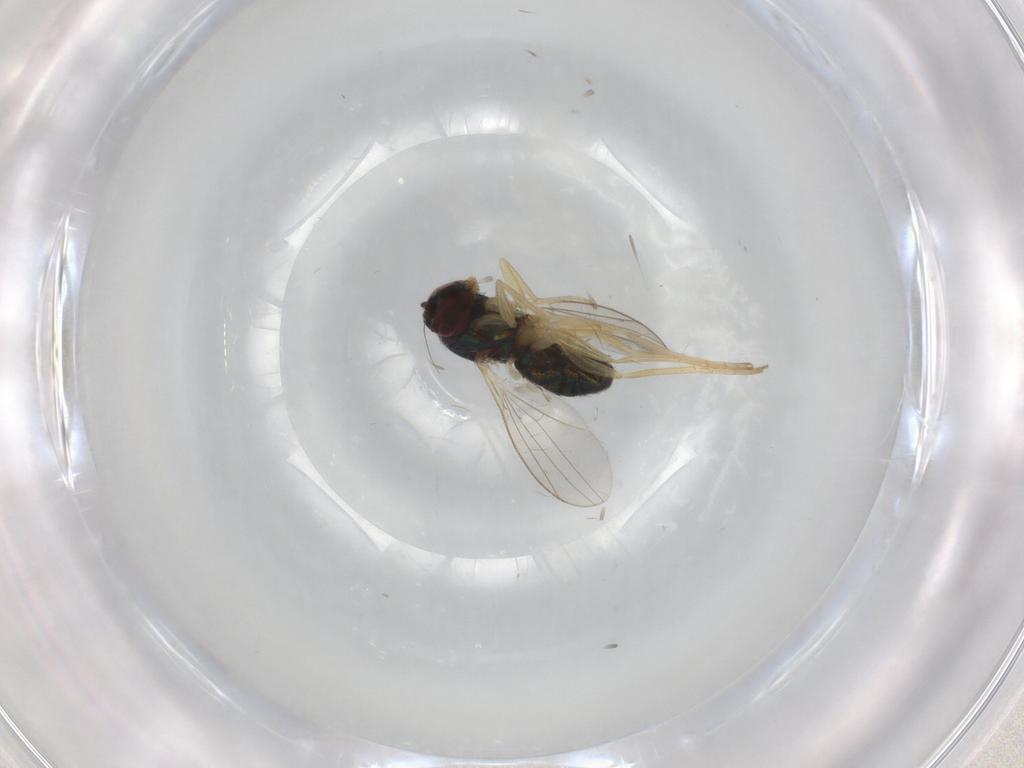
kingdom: Animalia
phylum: Arthropoda
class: Insecta
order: Diptera
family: Dolichopodidae
